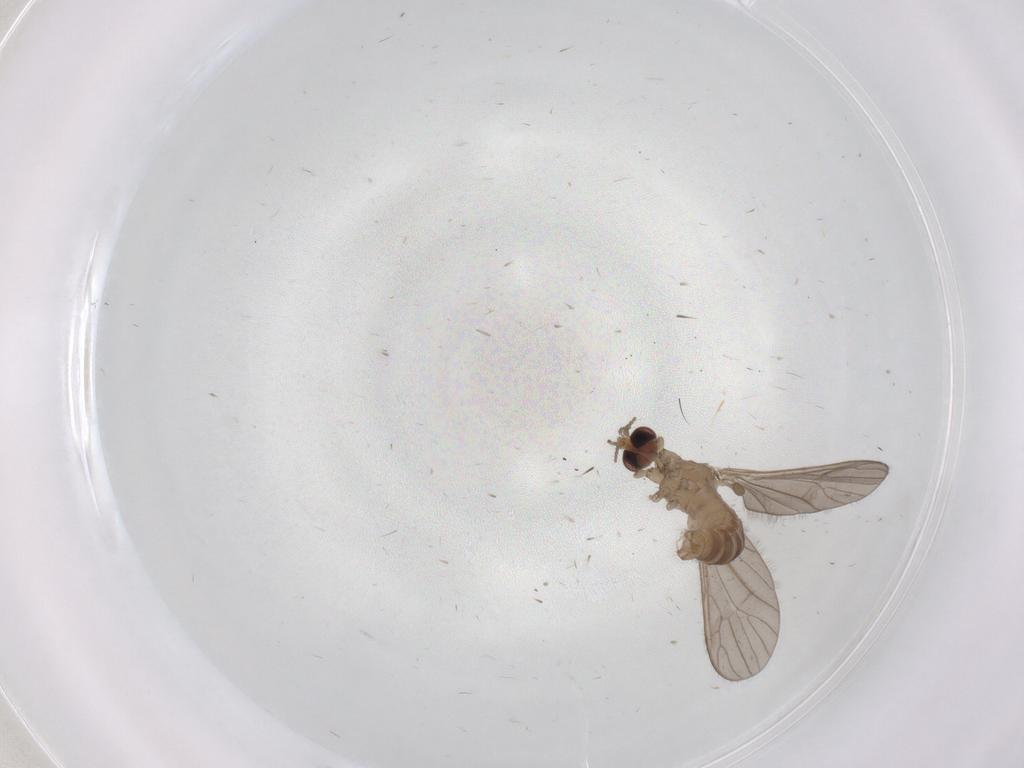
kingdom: Animalia
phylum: Arthropoda
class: Insecta
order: Diptera
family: Limoniidae
